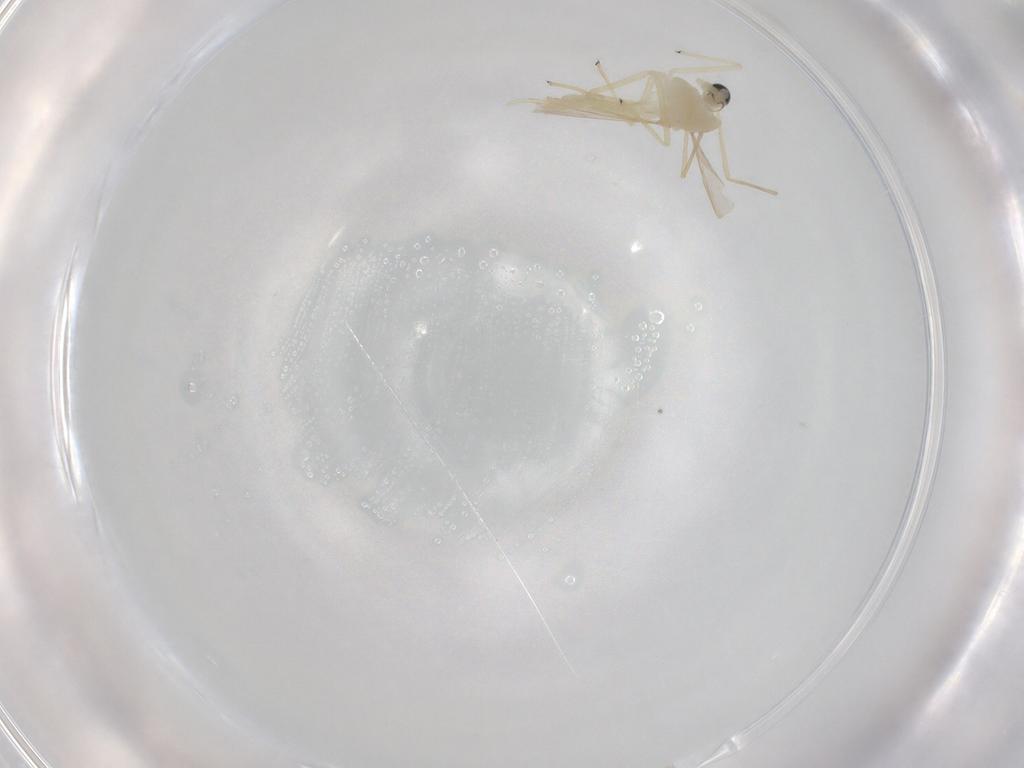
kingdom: Animalia
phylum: Arthropoda
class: Insecta
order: Diptera
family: Chironomidae
